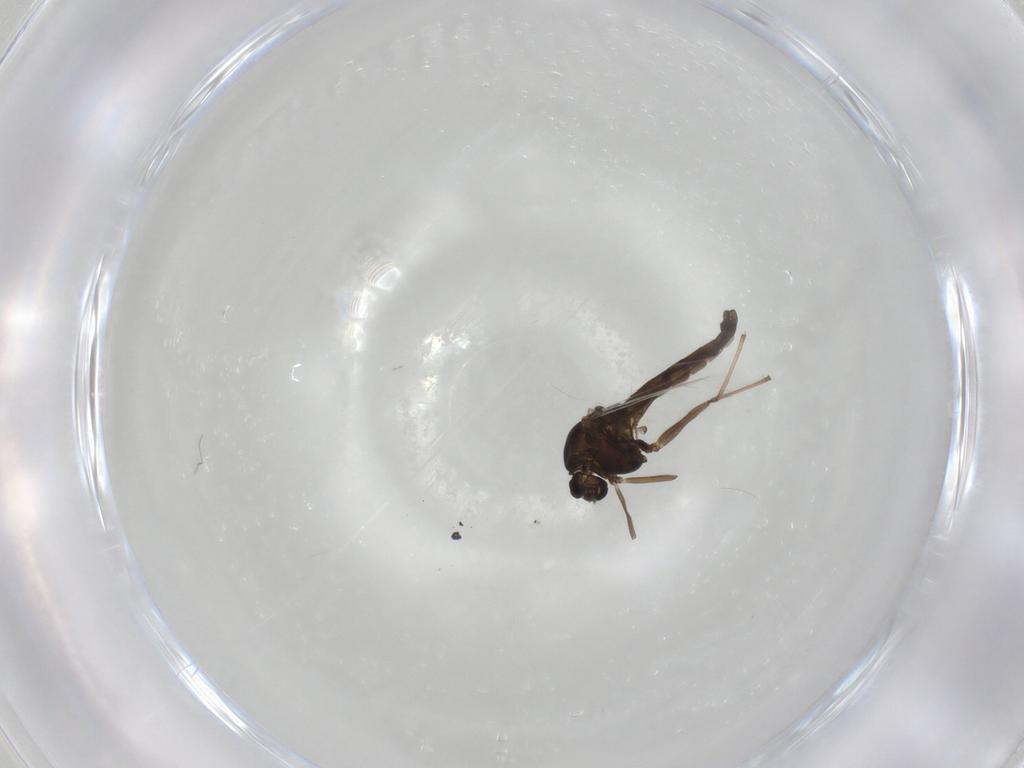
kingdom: Animalia
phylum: Arthropoda
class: Insecta
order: Diptera
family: Chironomidae
